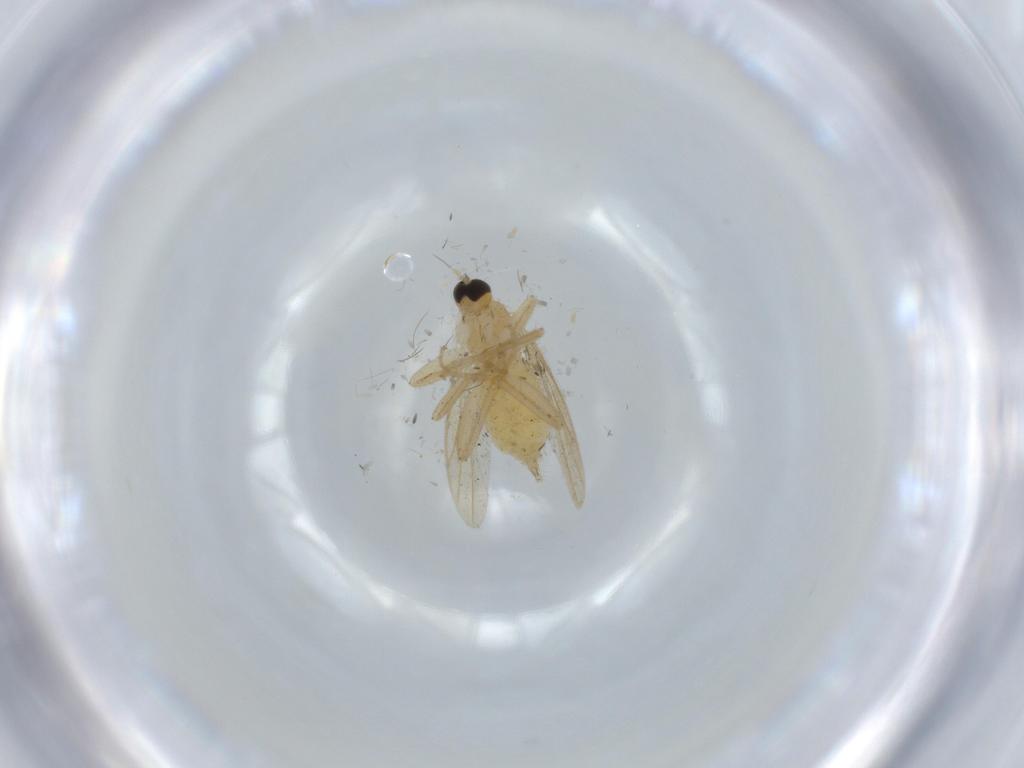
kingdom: Animalia
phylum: Arthropoda
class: Insecta
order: Diptera
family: Hybotidae
